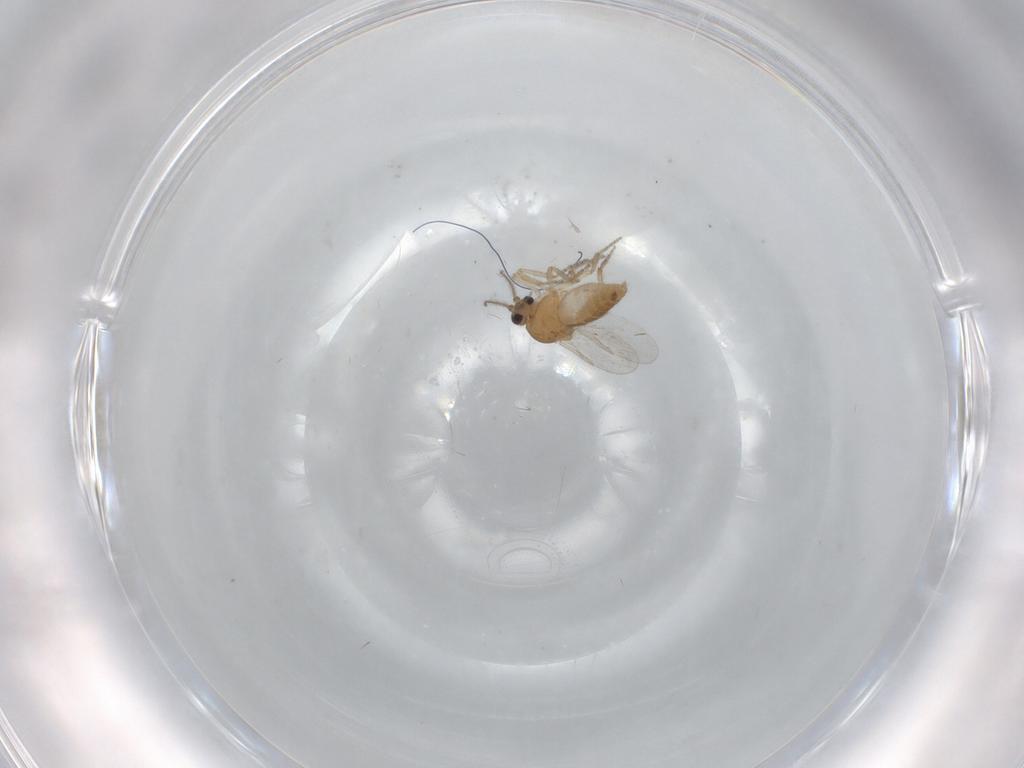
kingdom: Animalia
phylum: Arthropoda
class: Insecta
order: Diptera
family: Ceratopogonidae
